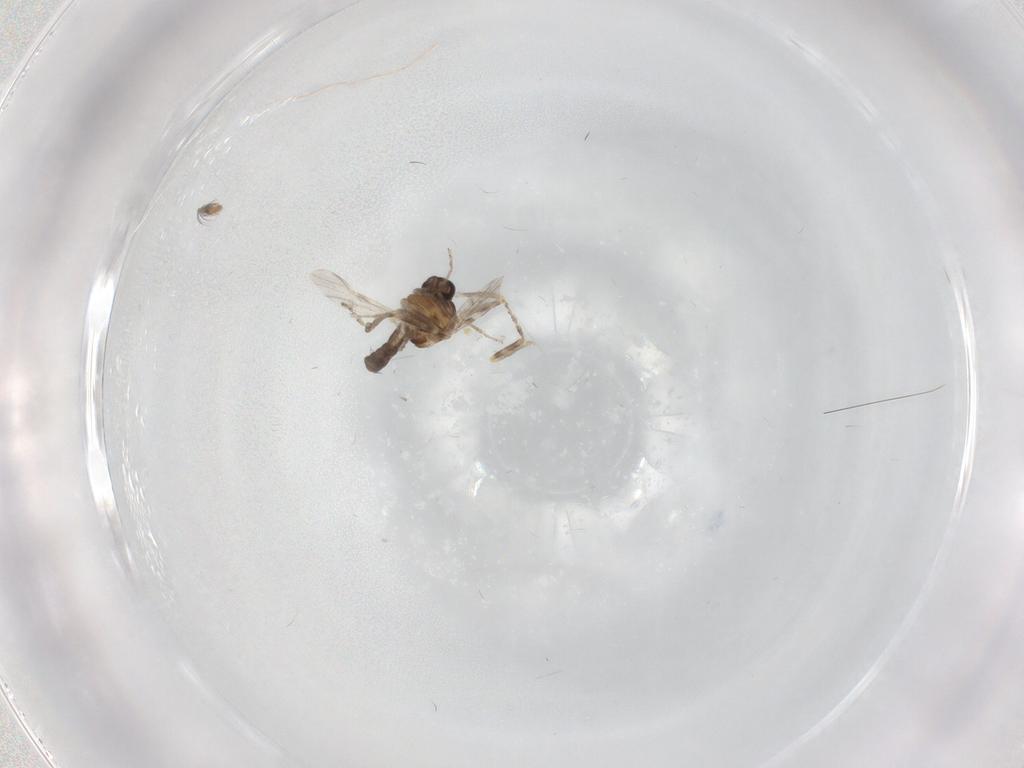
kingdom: Animalia
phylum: Arthropoda
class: Insecta
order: Diptera
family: Ceratopogonidae
